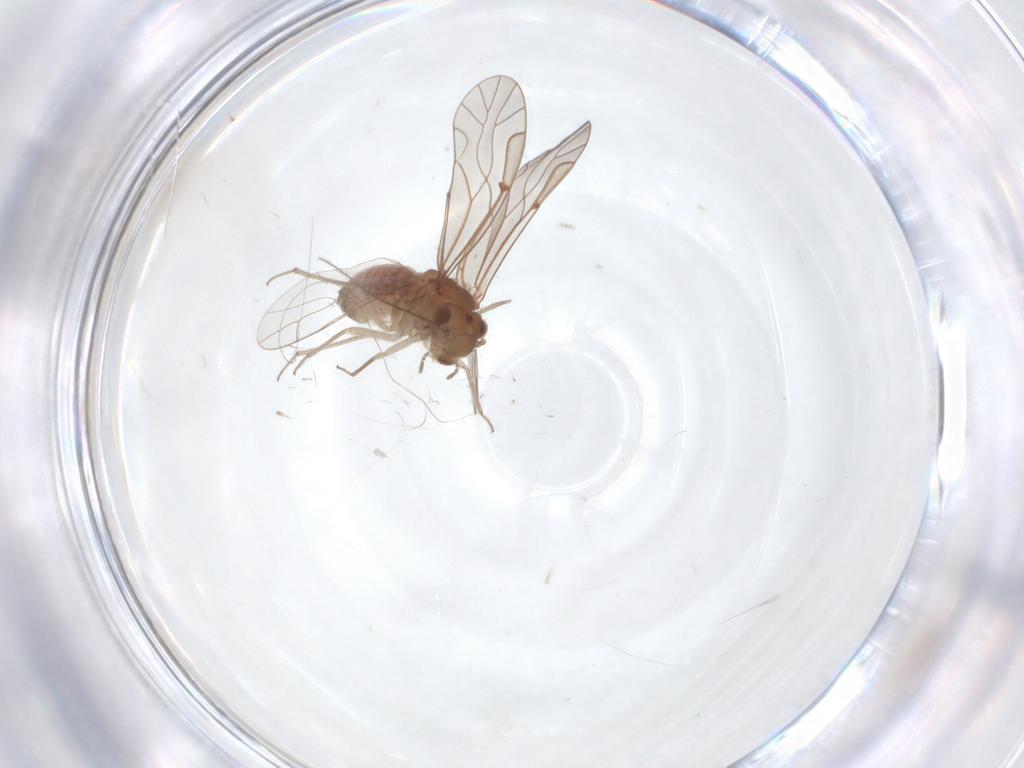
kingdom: Animalia
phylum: Arthropoda
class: Insecta
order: Psocodea
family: Lachesillidae
